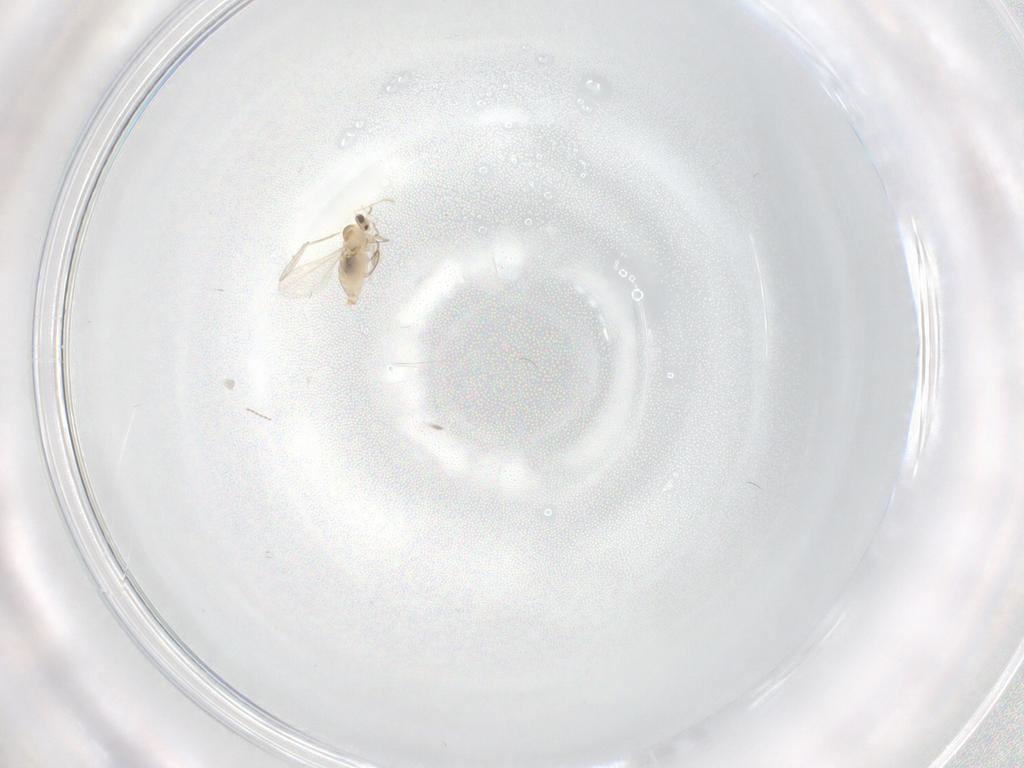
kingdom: Animalia
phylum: Arthropoda
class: Insecta
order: Diptera
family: Cecidomyiidae
